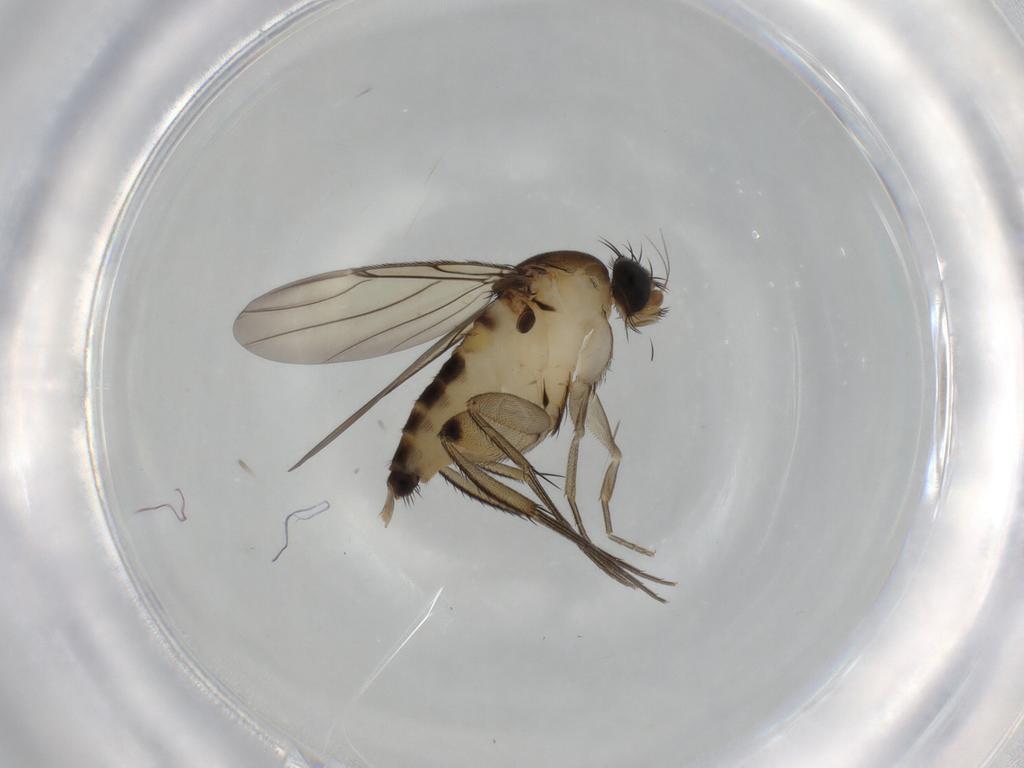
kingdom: Animalia
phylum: Arthropoda
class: Insecta
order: Diptera
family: Phoridae
